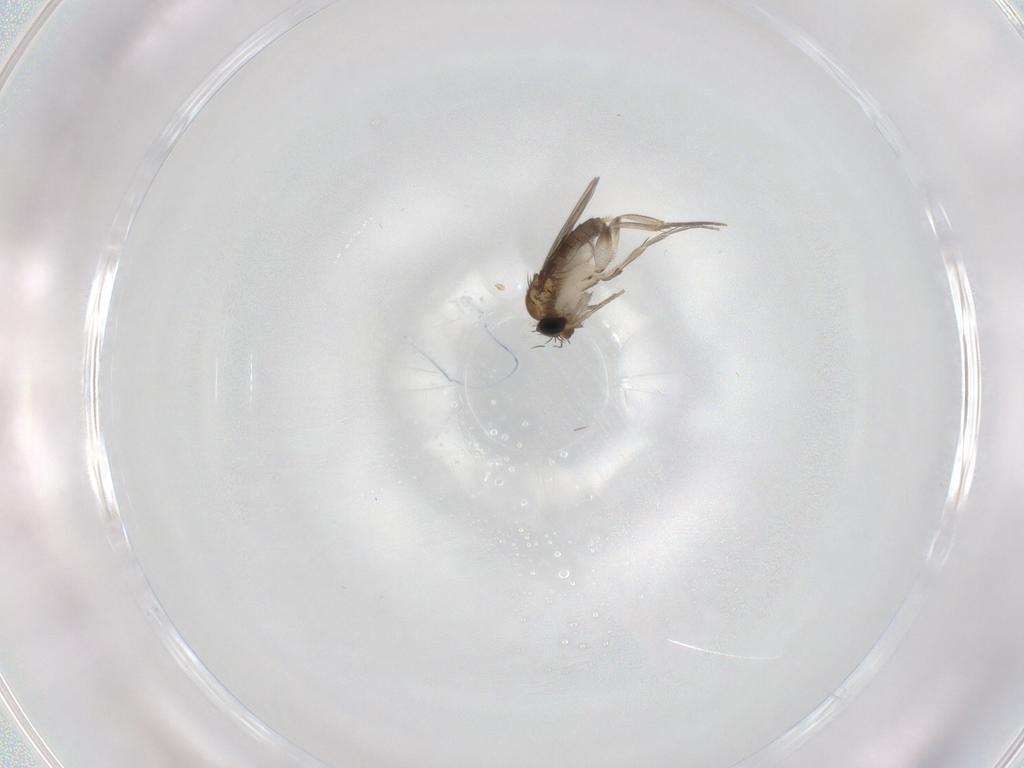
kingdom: Animalia
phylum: Arthropoda
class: Insecta
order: Diptera
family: Phoridae
